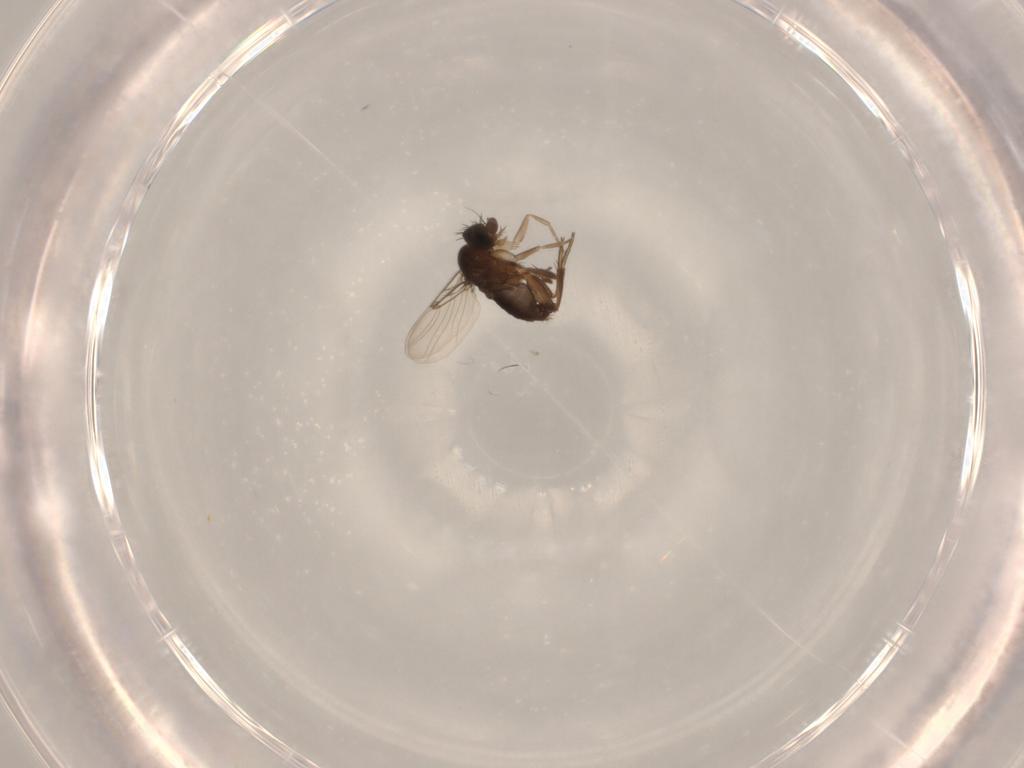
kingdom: Animalia
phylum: Arthropoda
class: Insecta
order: Diptera
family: Phoridae
